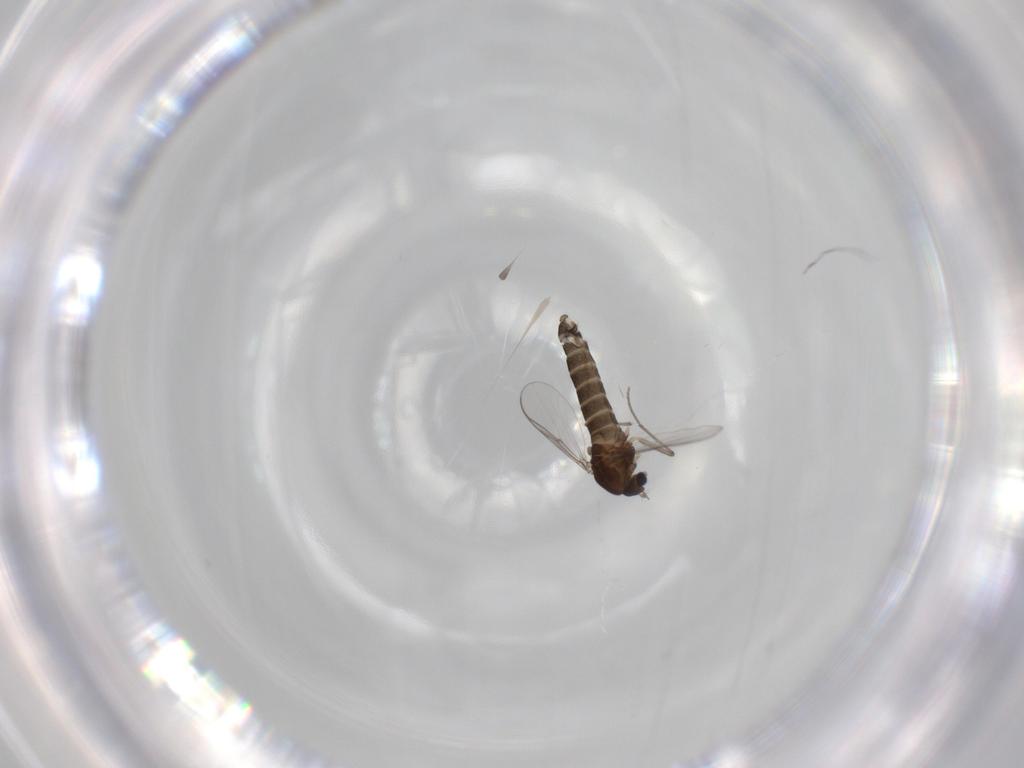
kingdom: Animalia
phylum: Arthropoda
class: Insecta
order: Diptera
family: Chironomidae
